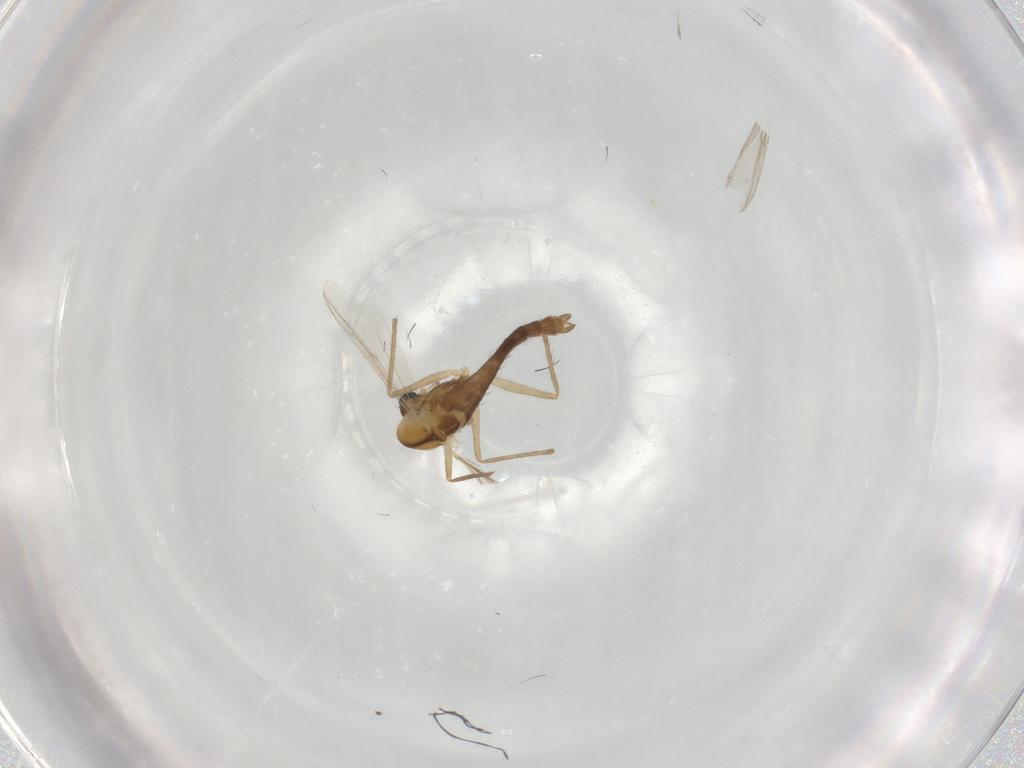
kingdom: Animalia
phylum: Arthropoda
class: Insecta
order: Diptera
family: Chironomidae
